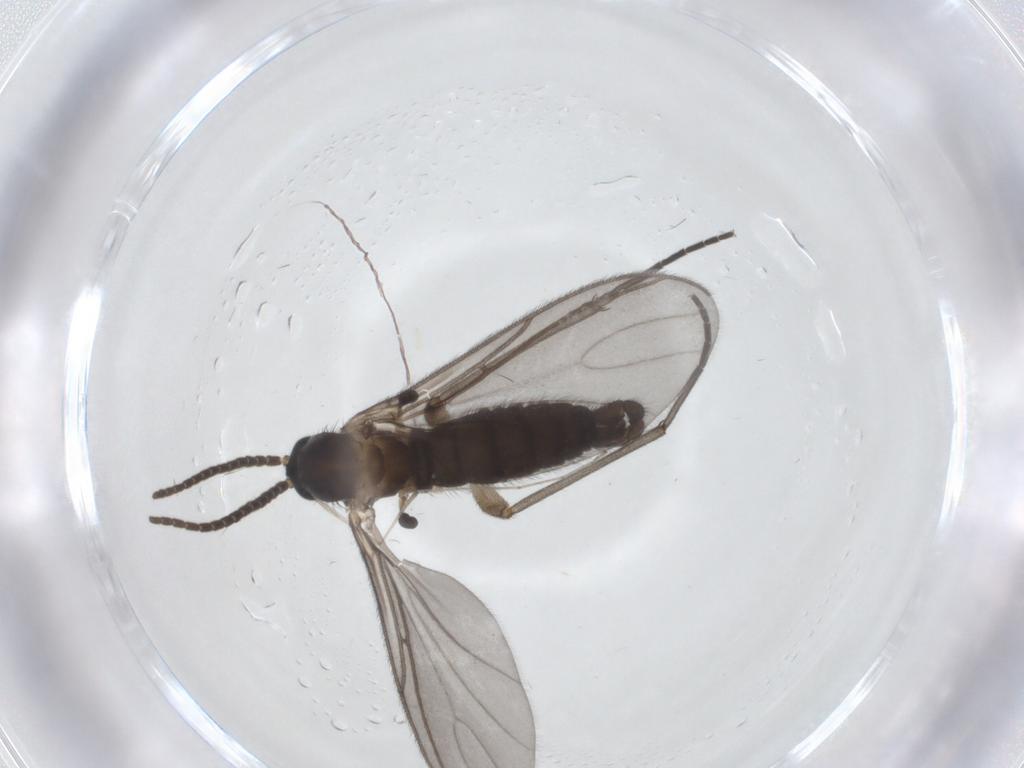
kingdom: Animalia
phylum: Arthropoda
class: Insecta
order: Diptera
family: Sciaridae
